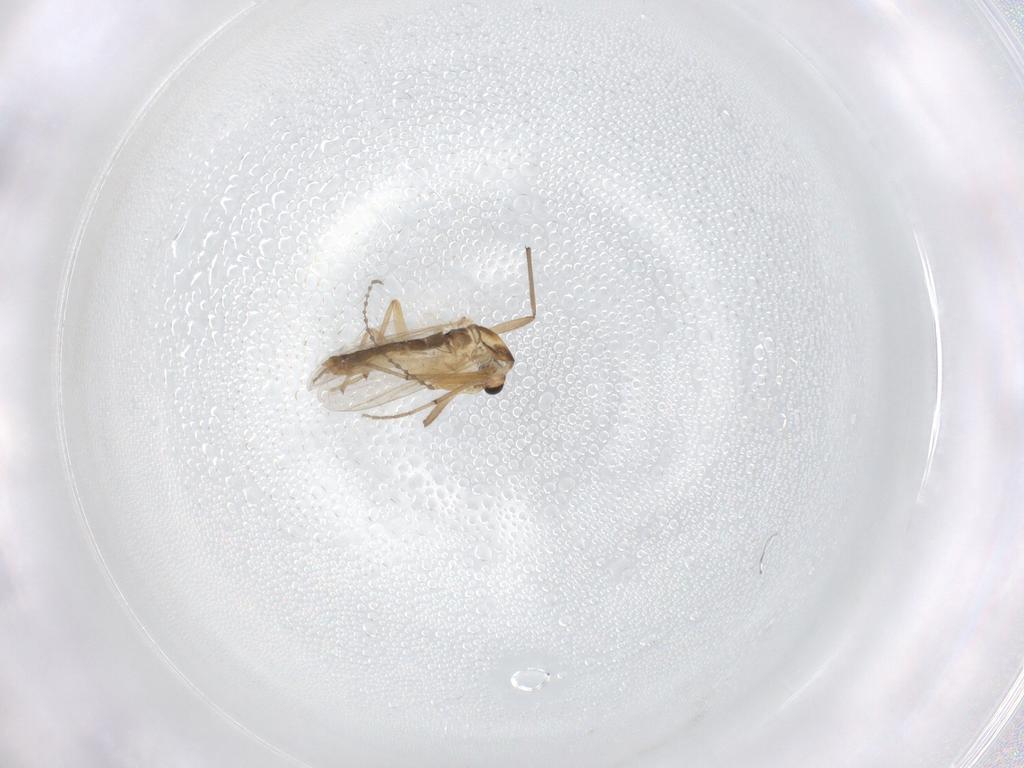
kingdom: Animalia
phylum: Arthropoda
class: Insecta
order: Diptera
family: Chironomidae
